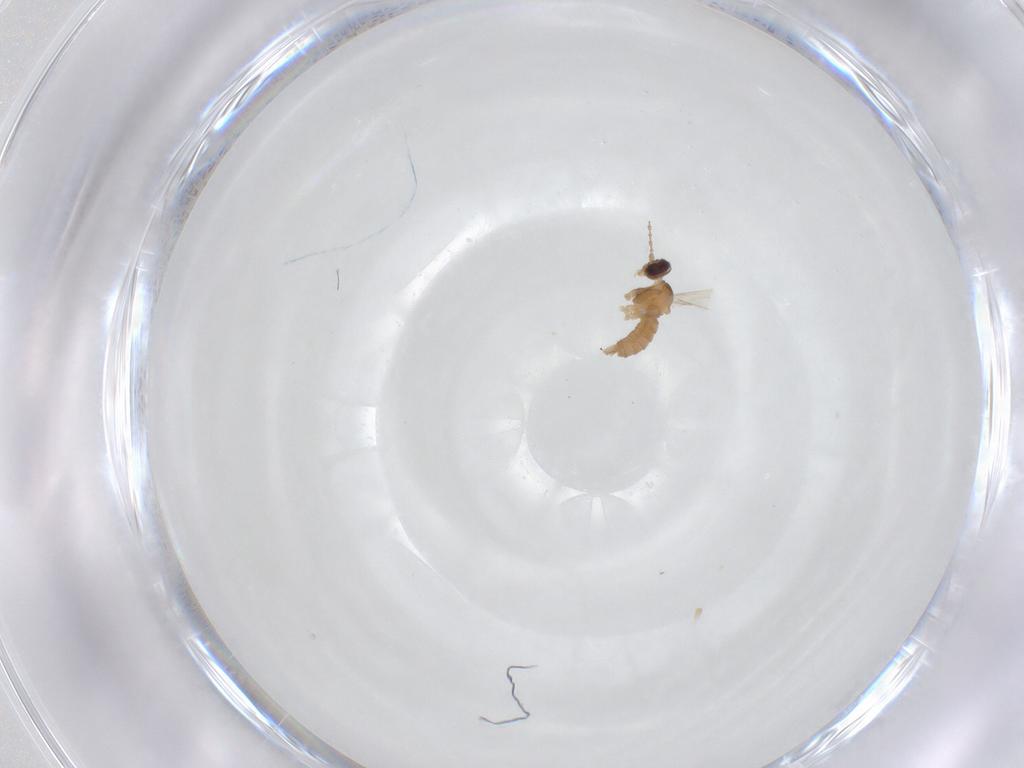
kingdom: Animalia
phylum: Arthropoda
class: Insecta
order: Diptera
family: Cecidomyiidae
